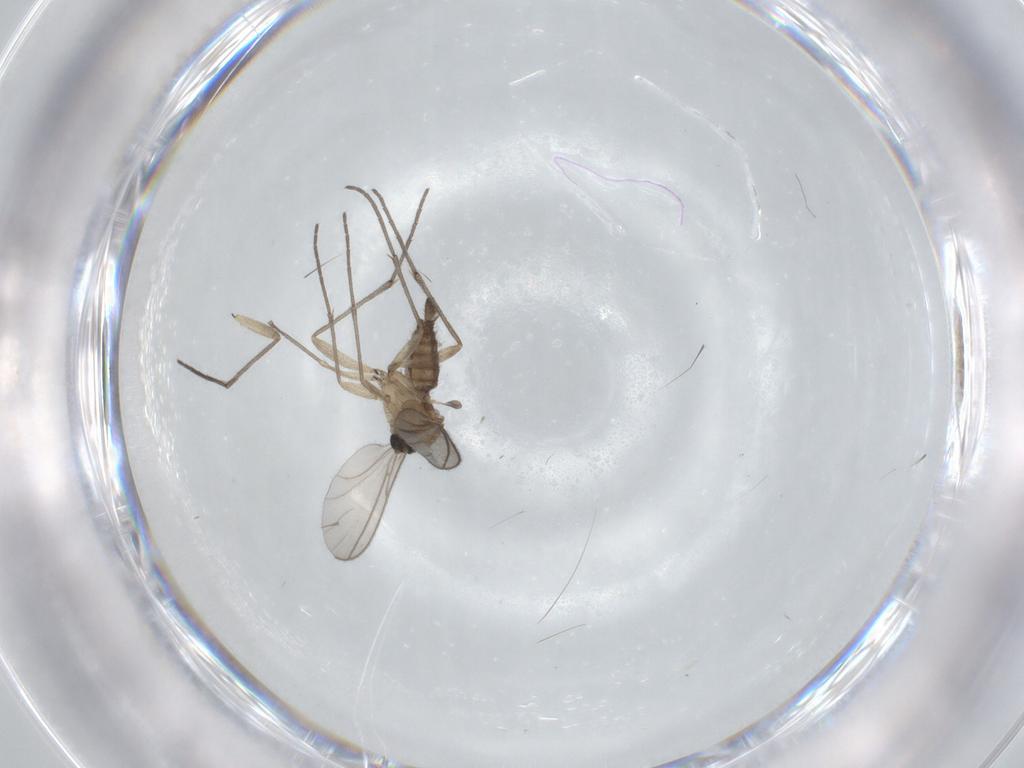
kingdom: Animalia
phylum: Arthropoda
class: Insecta
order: Diptera
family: Sciaridae
